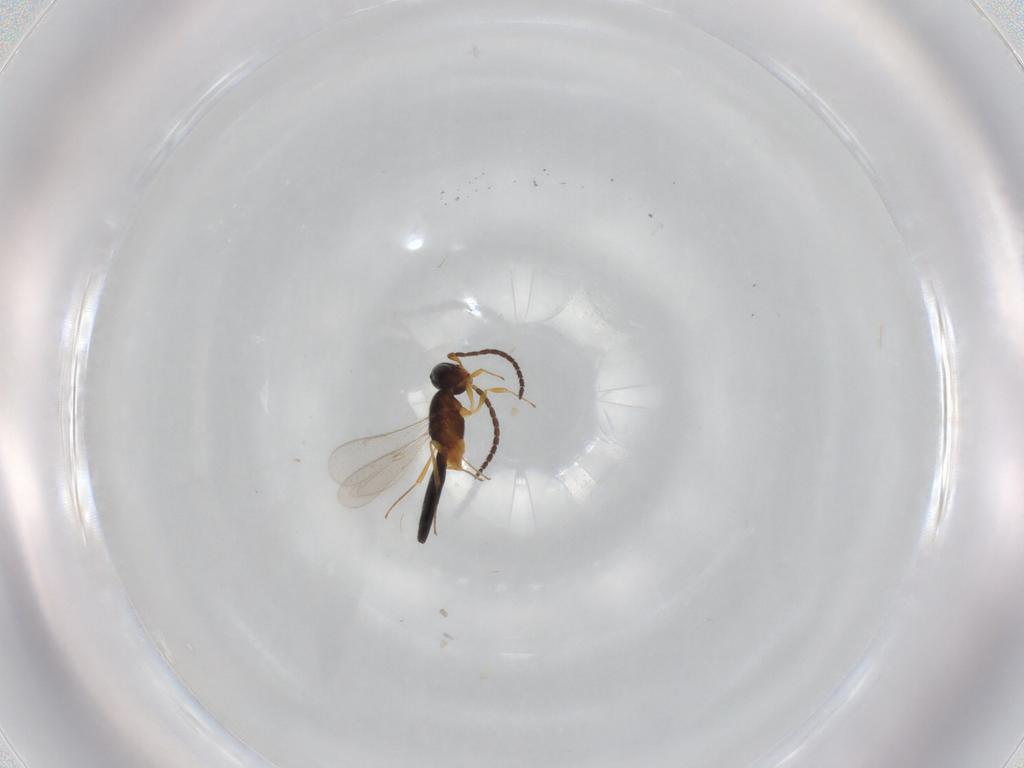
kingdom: Animalia
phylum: Arthropoda
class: Insecta
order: Hymenoptera
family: Scelionidae
